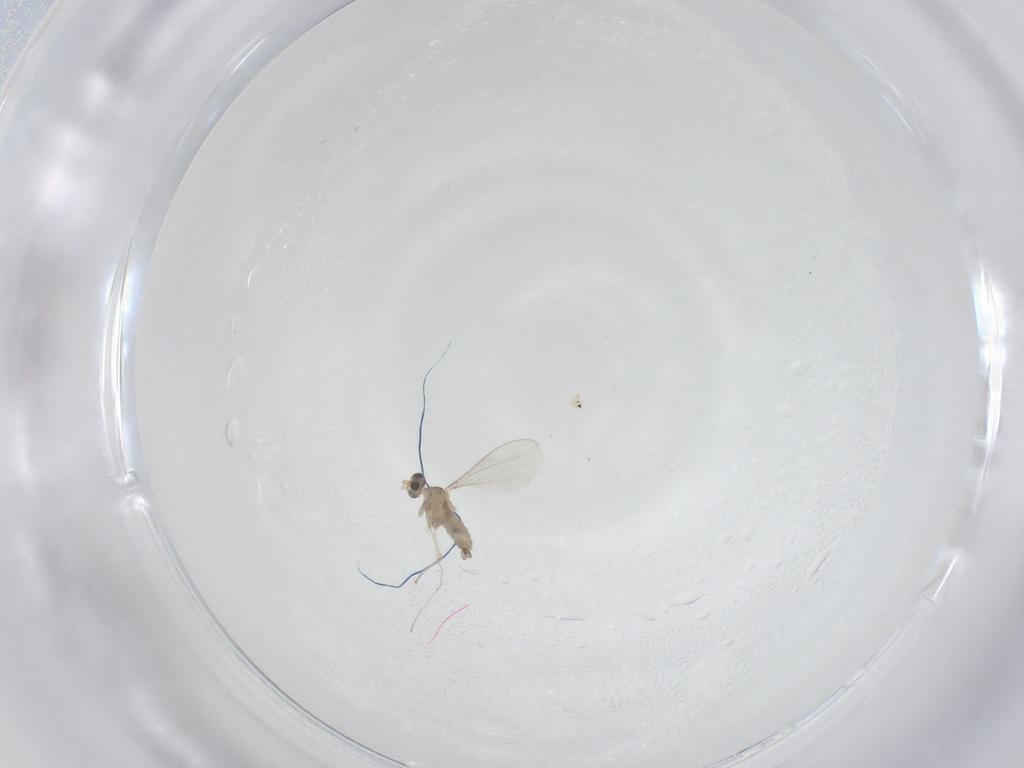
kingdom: Animalia
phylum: Arthropoda
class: Insecta
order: Diptera
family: Cecidomyiidae
